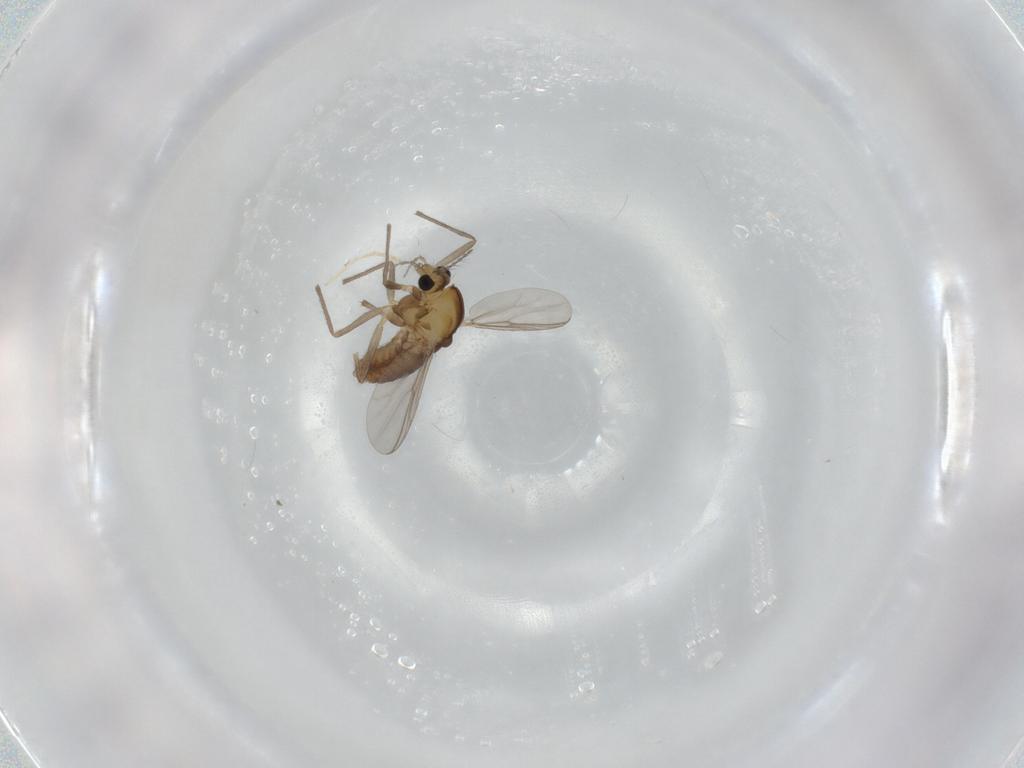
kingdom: Animalia
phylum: Arthropoda
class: Insecta
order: Diptera
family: Chironomidae
